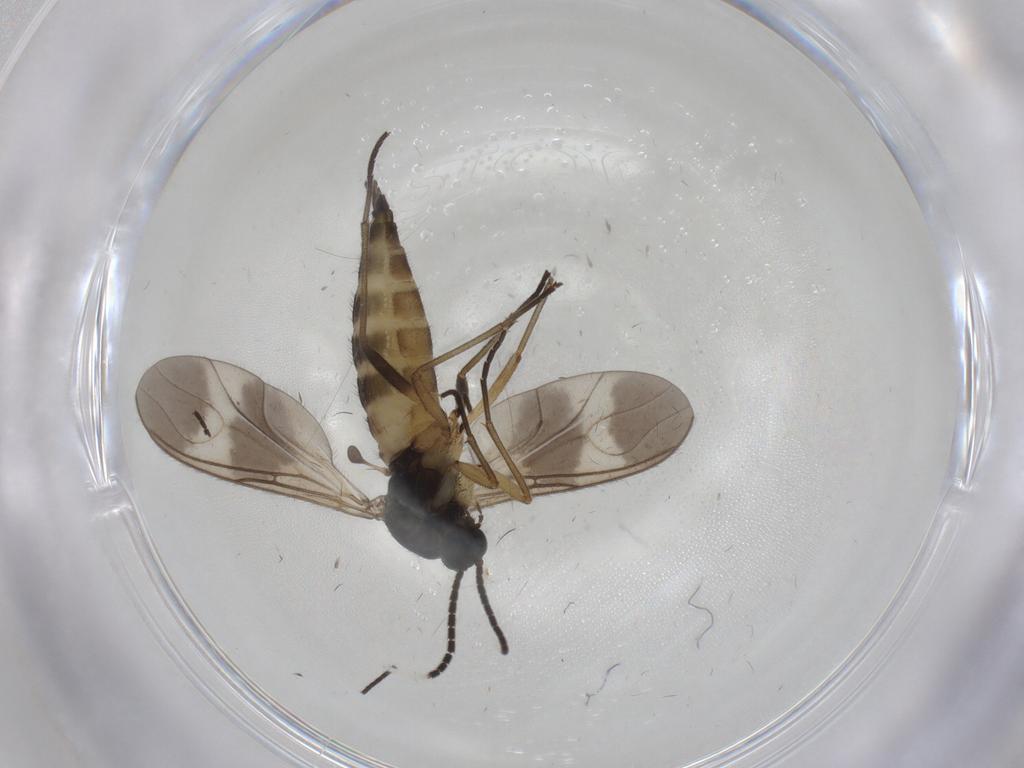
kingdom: Animalia
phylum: Arthropoda
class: Insecta
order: Diptera
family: Sciaridae
